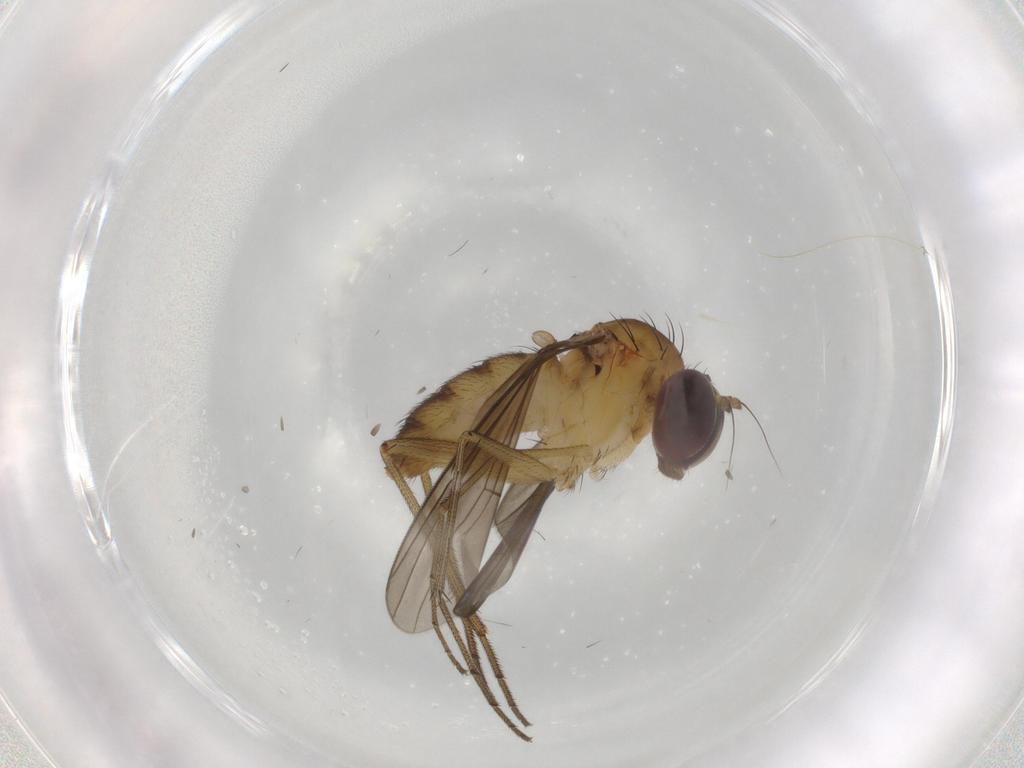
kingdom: Animalia
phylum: Arthropoda
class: Insecta
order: Diptera
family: Dolichopodidae
